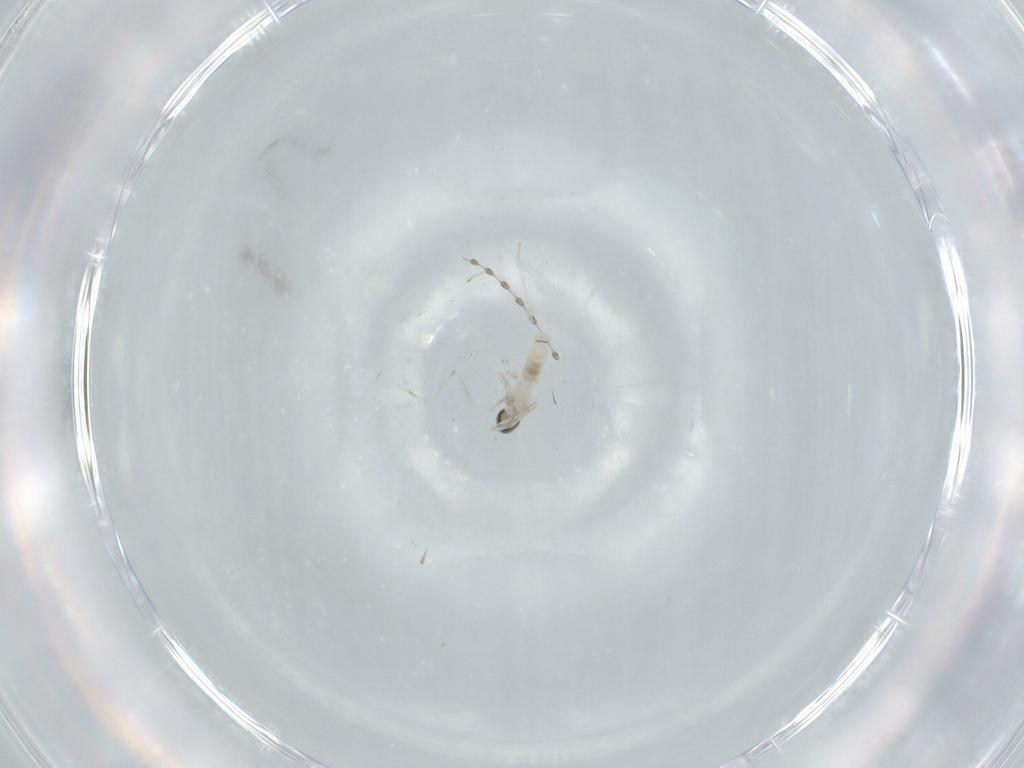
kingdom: Animalia
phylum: Arthropoda
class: Insecta
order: Diptera
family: Cecidomyiidae
